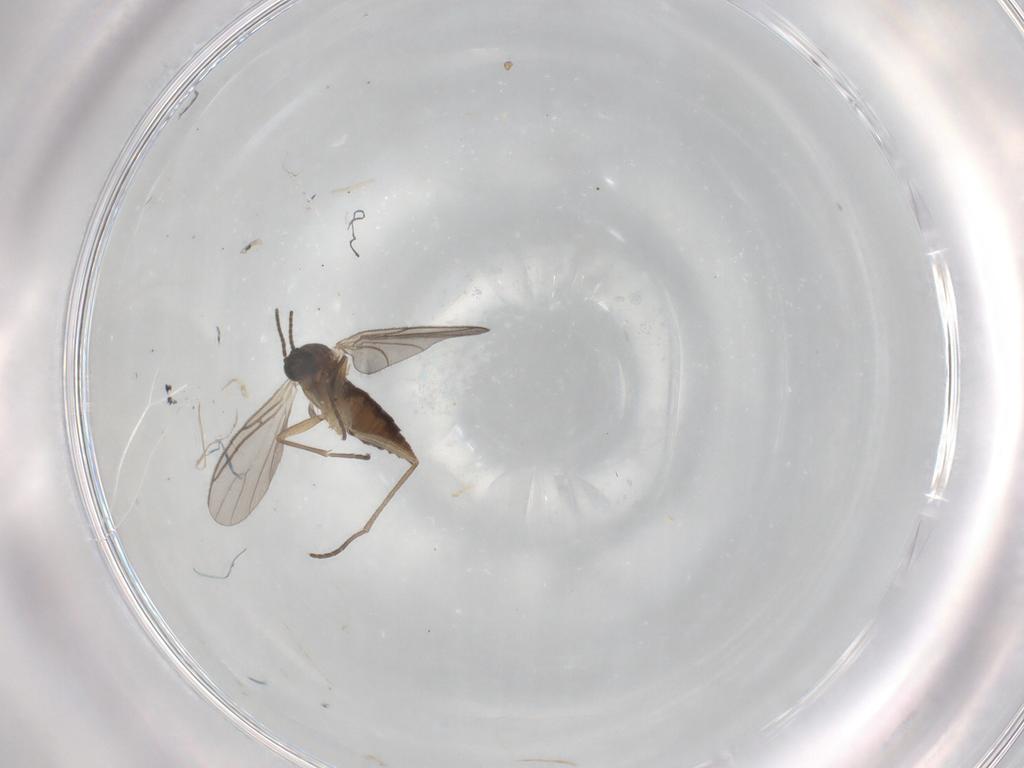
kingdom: Animalia
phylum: Arthropoda
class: Insecta
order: Diptera
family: Sciaridae
